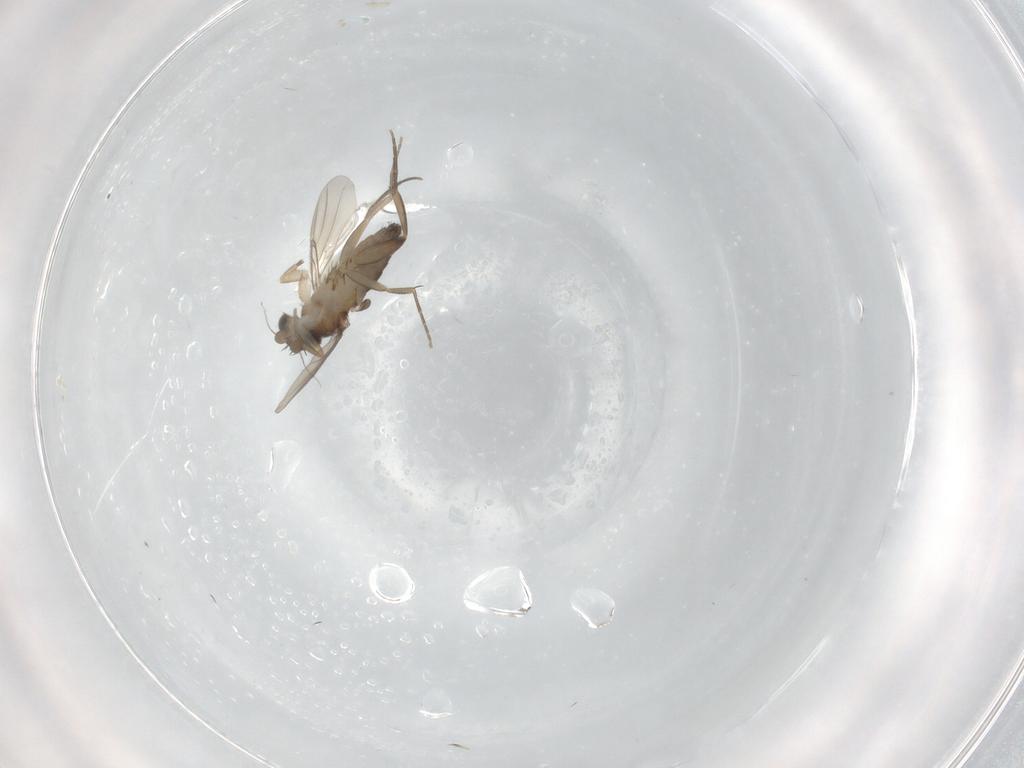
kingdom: Animalia
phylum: Arthropoda
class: Insecta
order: Diptera
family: Phoridae
